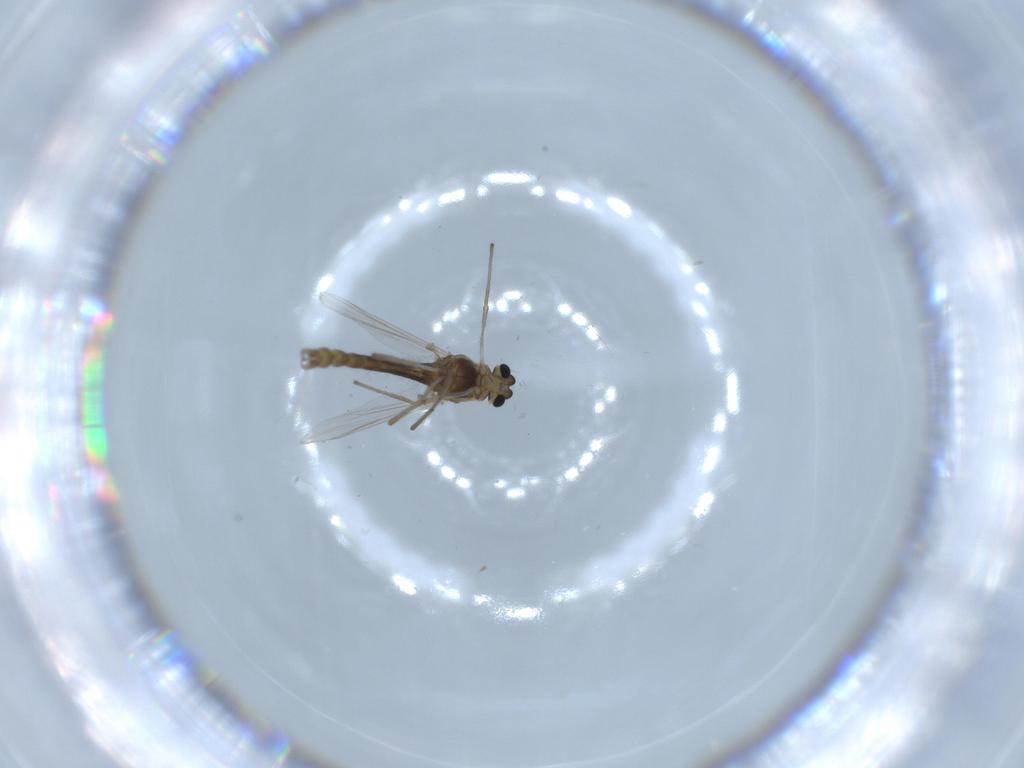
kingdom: Animalia
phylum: Arthropoda
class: Insecta
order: Diptera
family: Chironomidae
